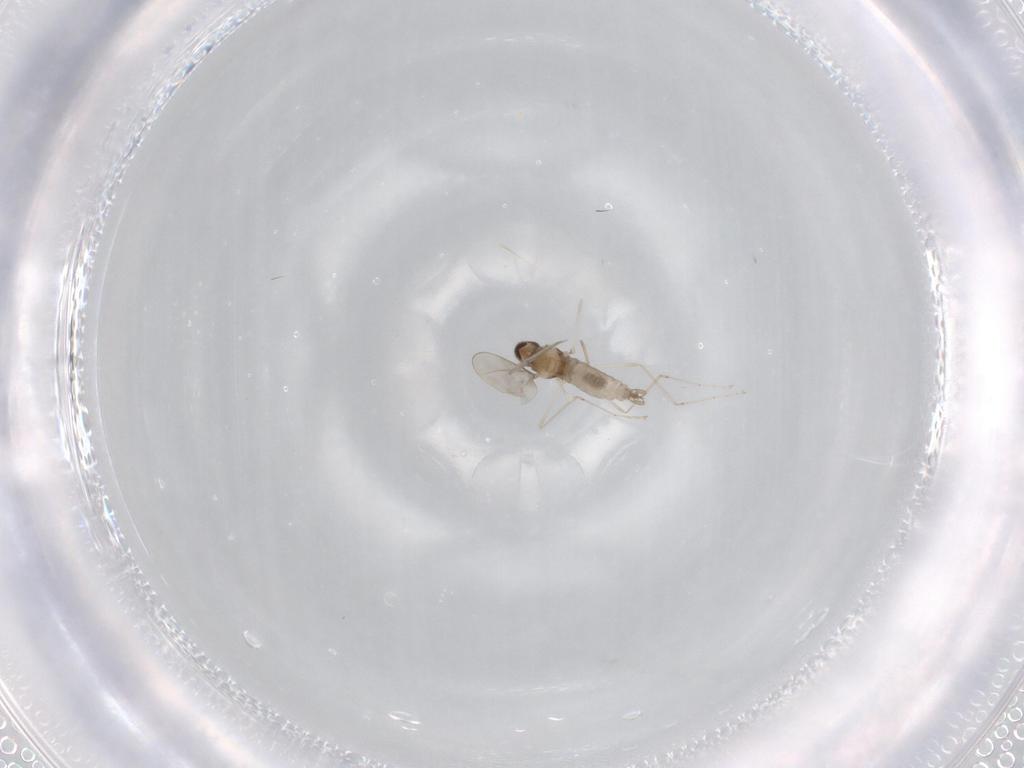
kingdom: Animalia
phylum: Arthropoda
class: Insecta
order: Diptera
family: Cecidomyiidae
